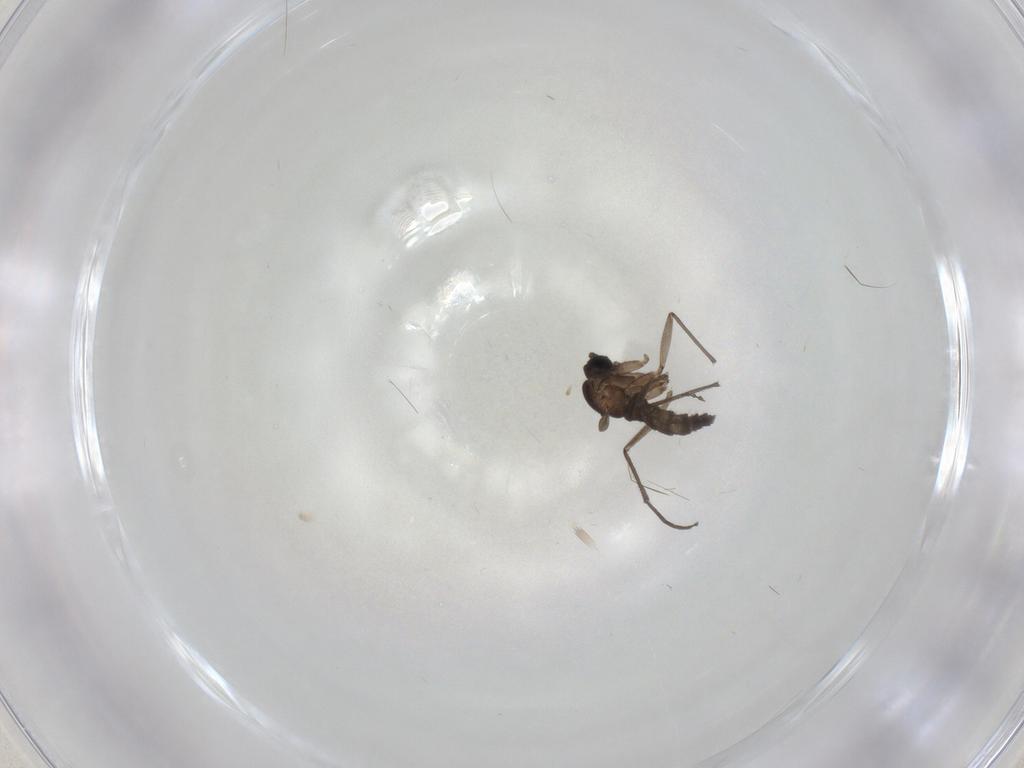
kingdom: Animalia
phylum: Arthropoda
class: Insecta
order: Diptera
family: Sciaridae
